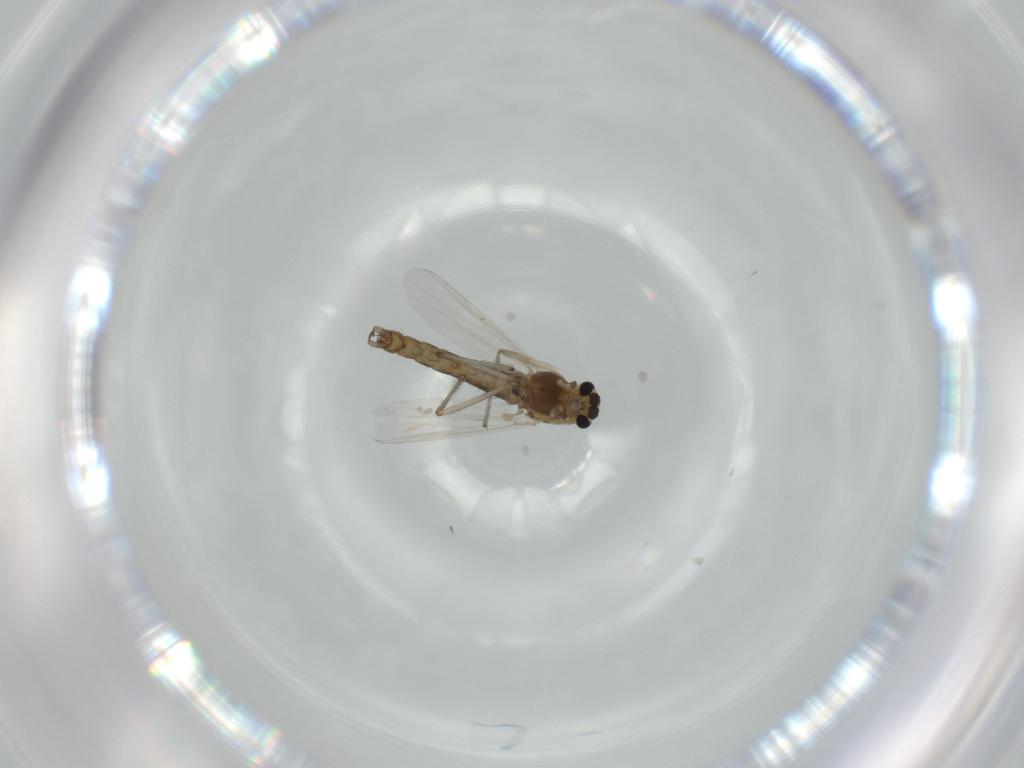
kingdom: Animalia
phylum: Arthropoda
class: Insecta
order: Diptera
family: Chironomidae
